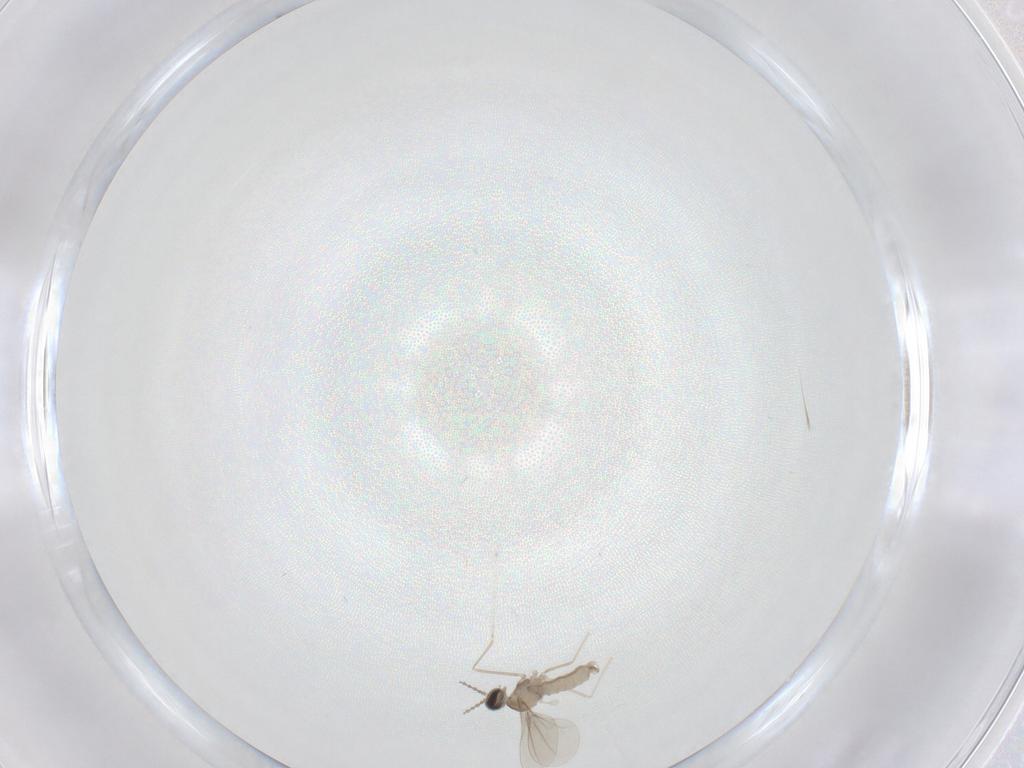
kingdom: Animalia
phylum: Arthropoda
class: Insecta
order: Diptera
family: Cecidomyiidae
